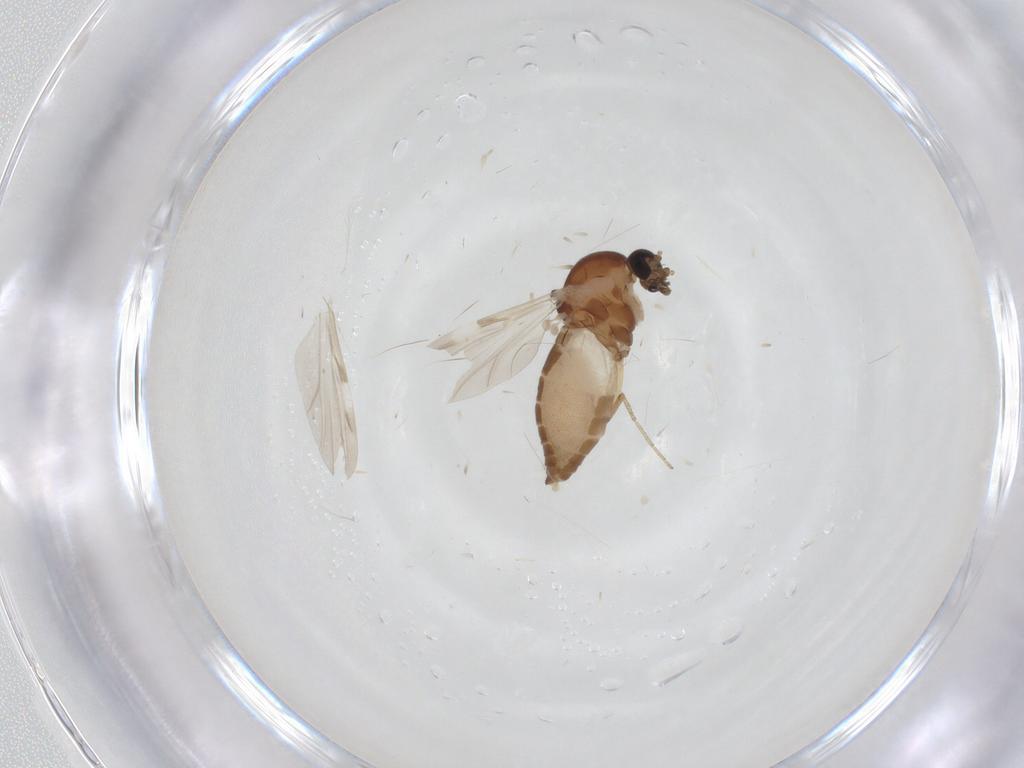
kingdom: Animalia
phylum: Arthropoda
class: Insecta
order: Diptera
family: Ceratopogonidae
